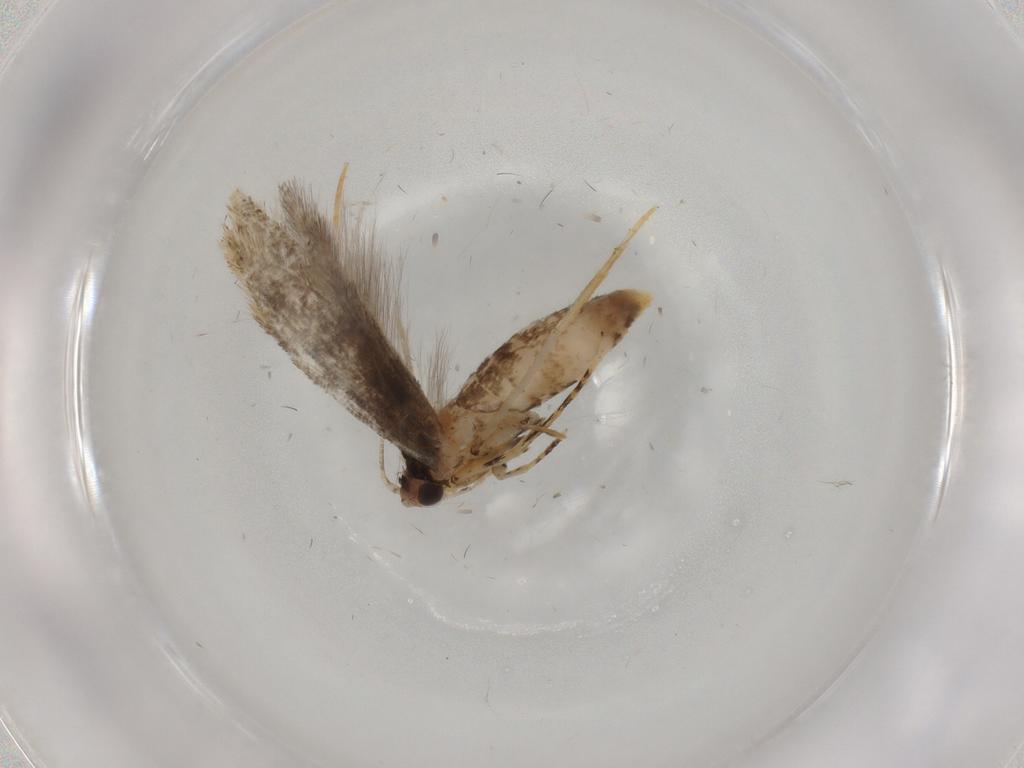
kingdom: Animalia
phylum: Arthropoda
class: Insecta
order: Lepidoptera
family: Tineidae
